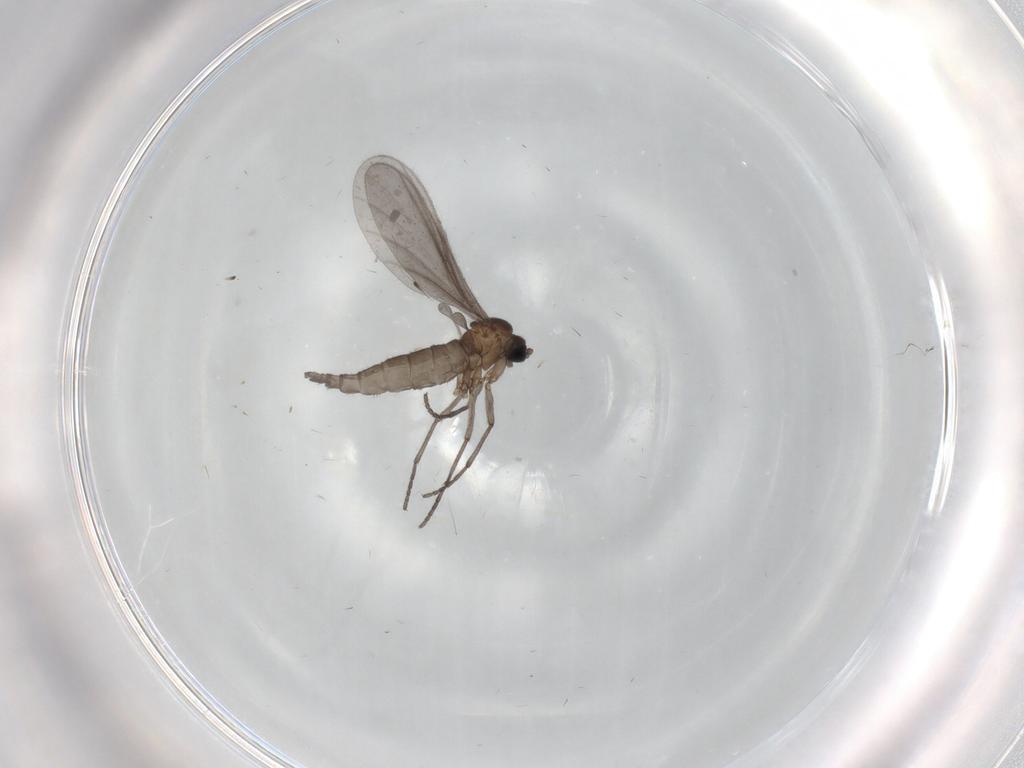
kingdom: Animalia
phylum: Arthropoda
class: Insecta
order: Diptera
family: Sciaridae
